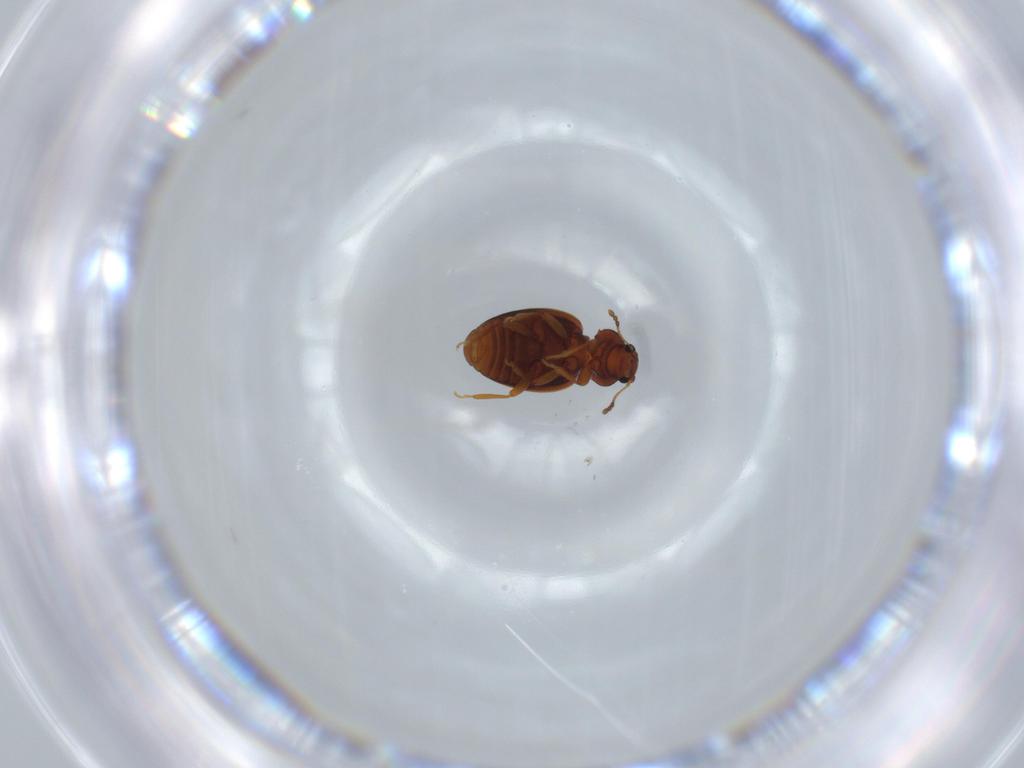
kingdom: Animalia
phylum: Arthropoda
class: Insecta
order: Coleoptera
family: Latridiidae
